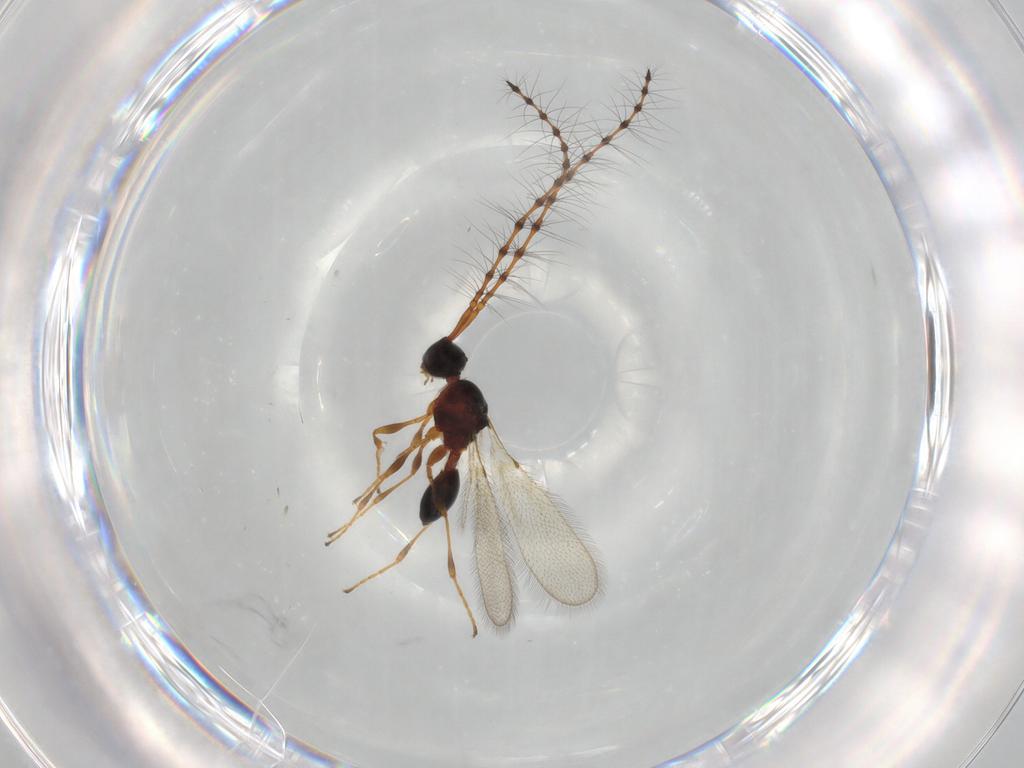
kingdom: Animalia
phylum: Arthropoda
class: Insecta
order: Hymenoptera
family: Diapriidae
